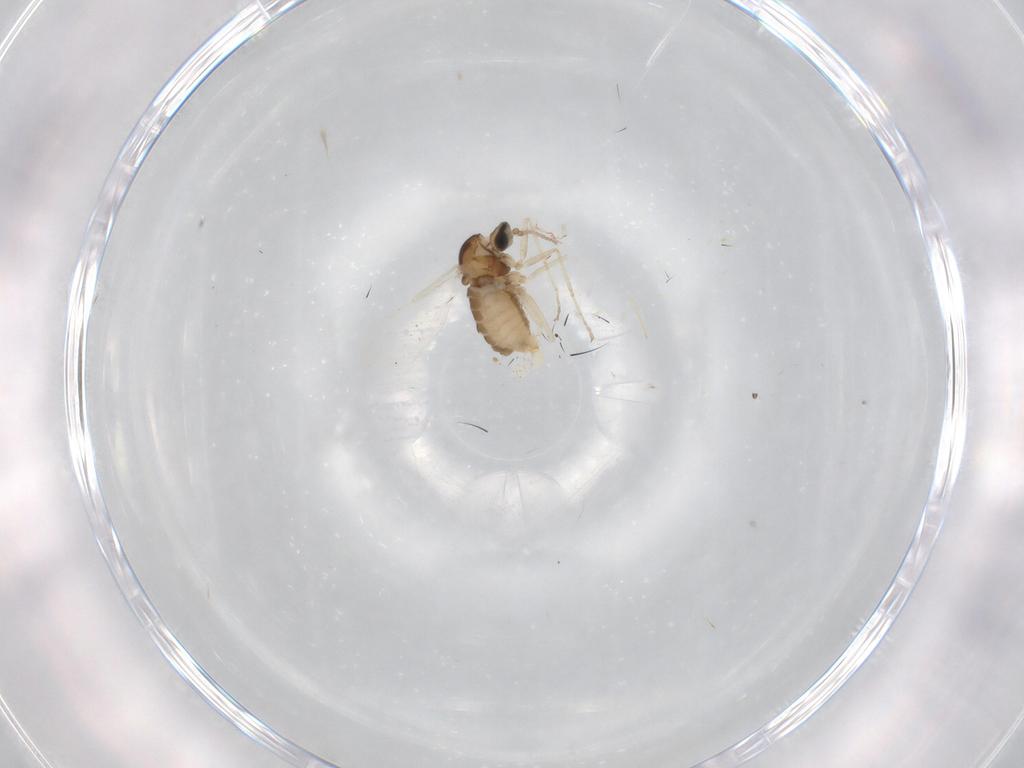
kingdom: Animalia
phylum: Arthropoda
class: Insecta
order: Diptera
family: Cecidomyiidae
